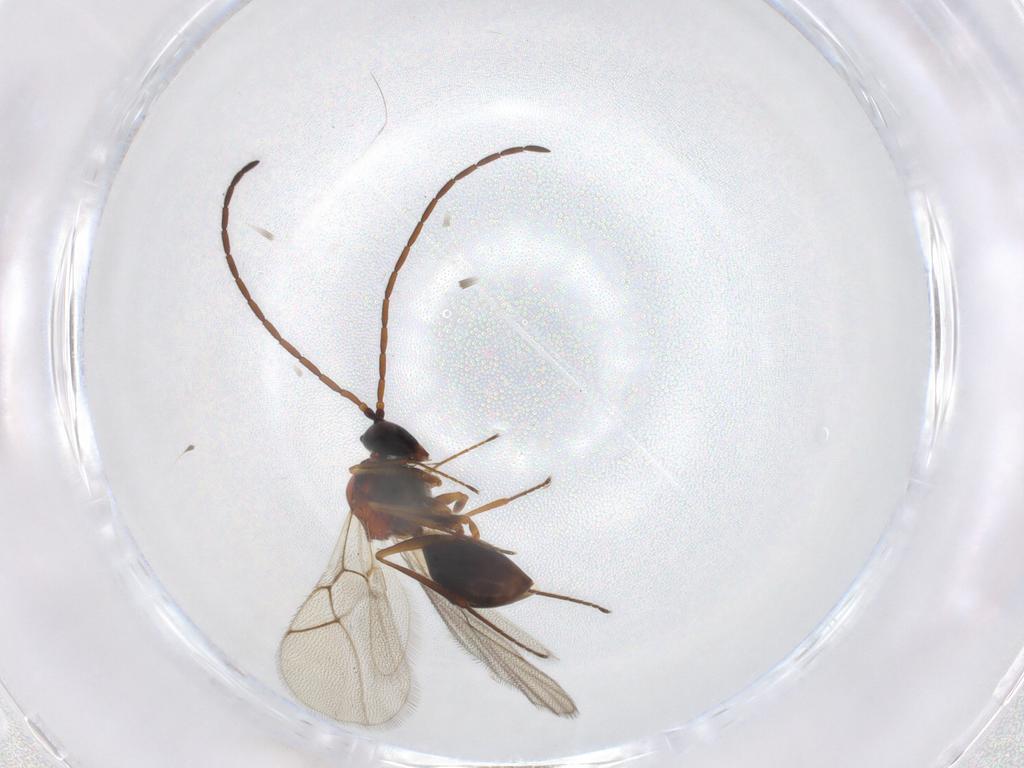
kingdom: Animalia
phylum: Arthropoda
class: Insecta
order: Hymenoptera
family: Figitidae
